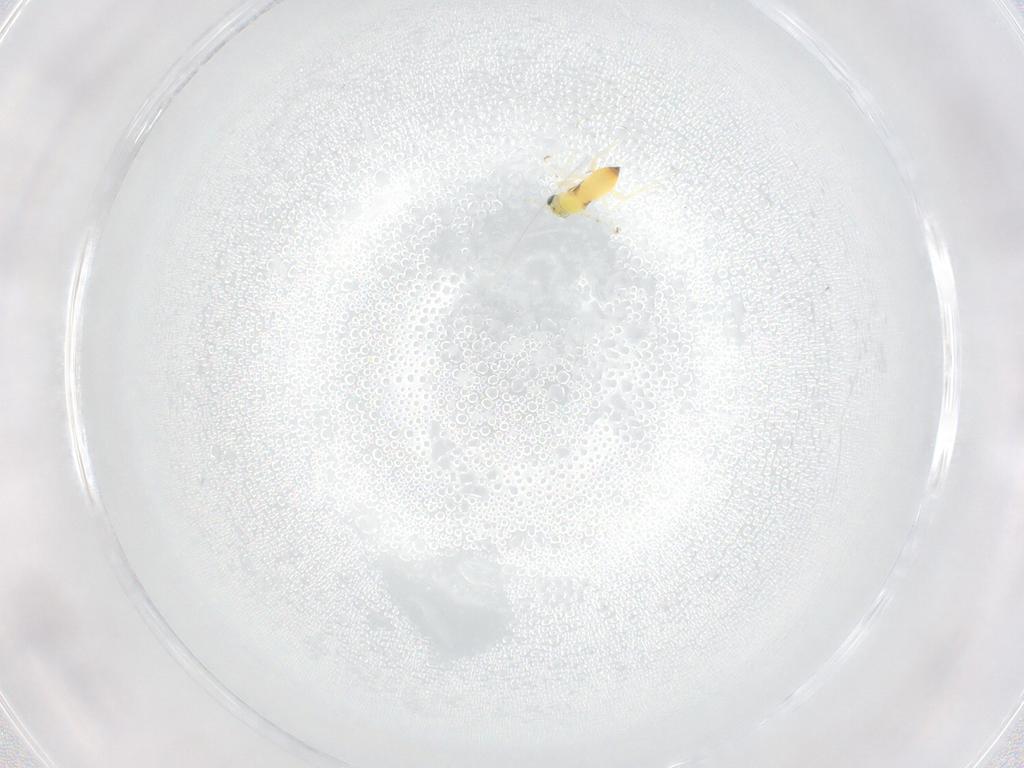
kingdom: Animalia
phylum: Arthropoda
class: Insecta
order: Hymenoptera
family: Trichogrammatidae
